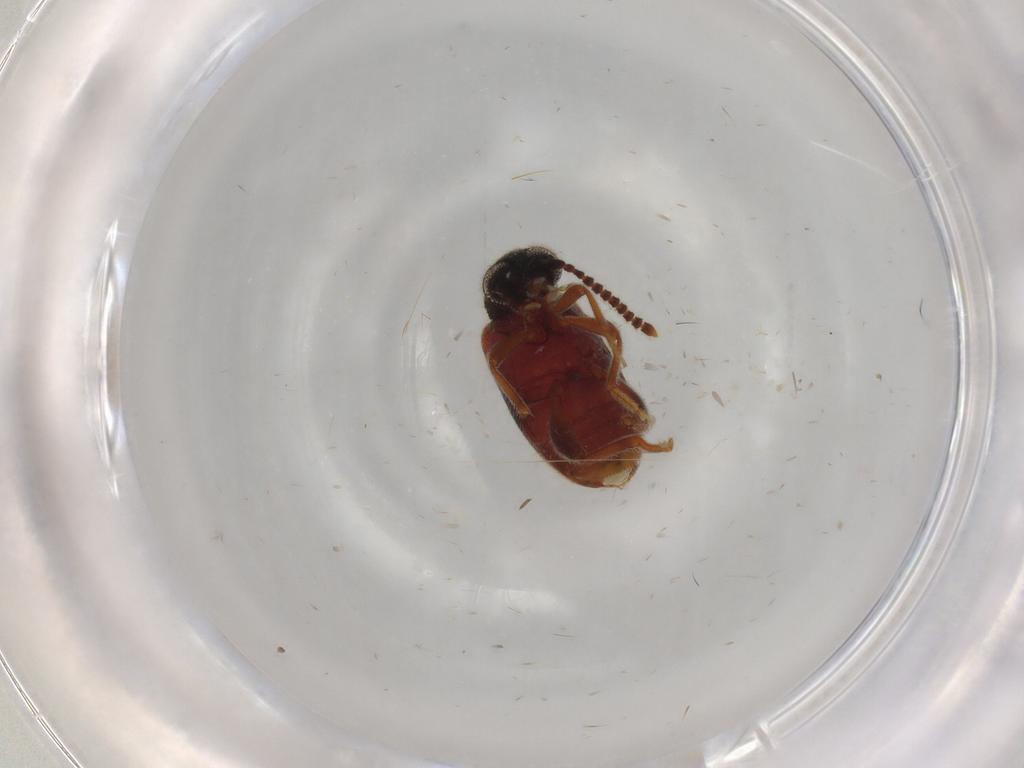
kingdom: Animalia
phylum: Arthropoda
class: Insecta
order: Coleoptera
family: Aderidae
